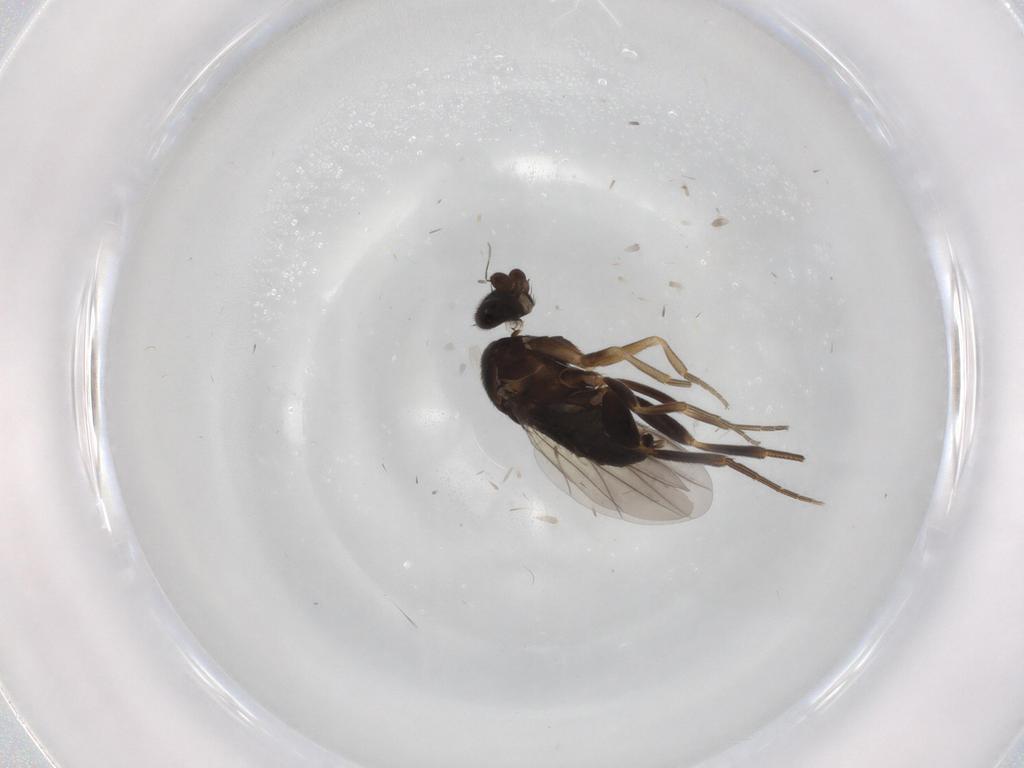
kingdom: Animalia
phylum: Arthropoda
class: Insecta
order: Diptera
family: Phoridae
